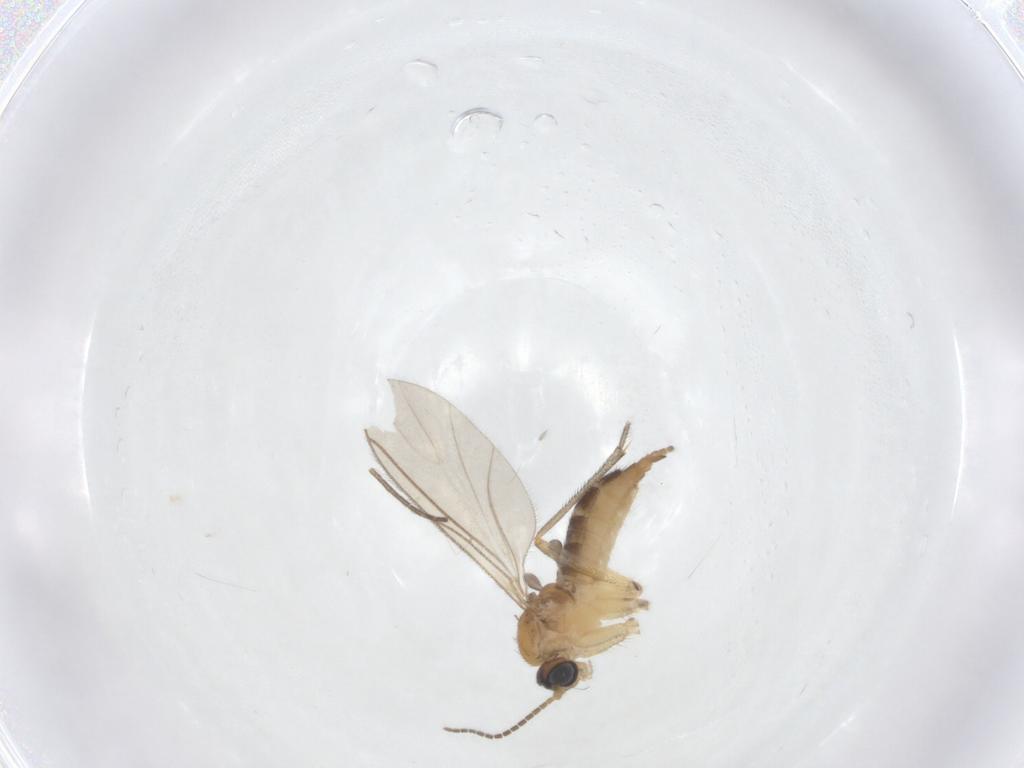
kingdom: Animalia
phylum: Arthropoda
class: Insecta
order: Diptera
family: Sciaridae
